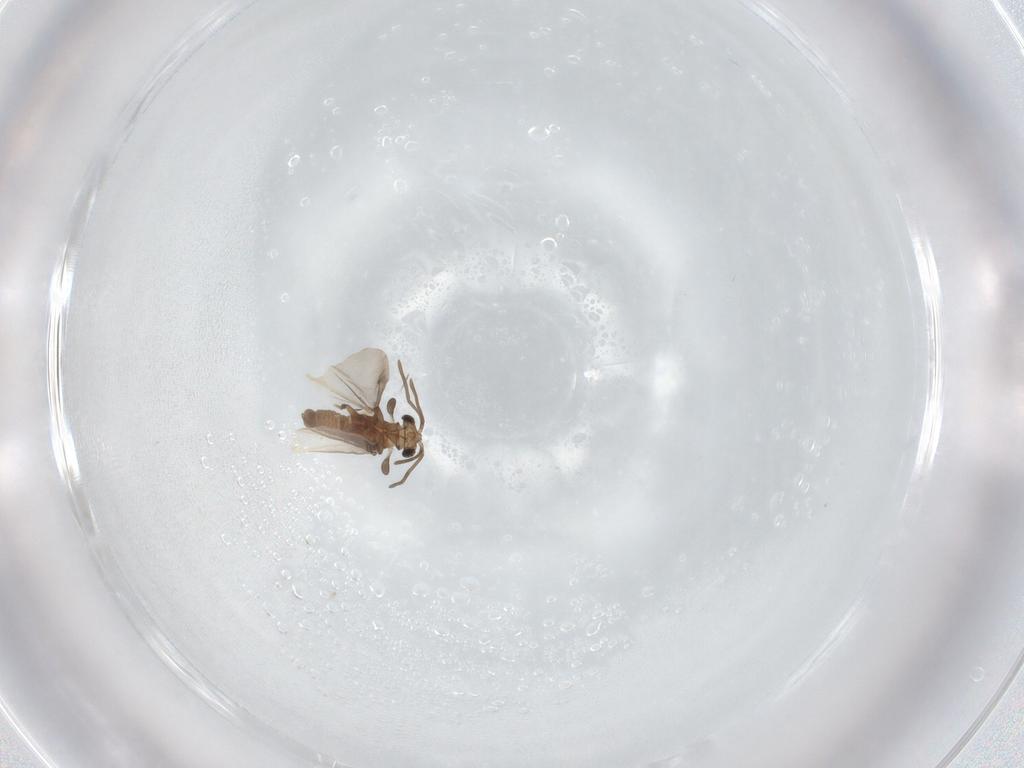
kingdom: Animalia
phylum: Arthropoda
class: Insecta
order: Strepsiptera
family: Myrmecolacidae
